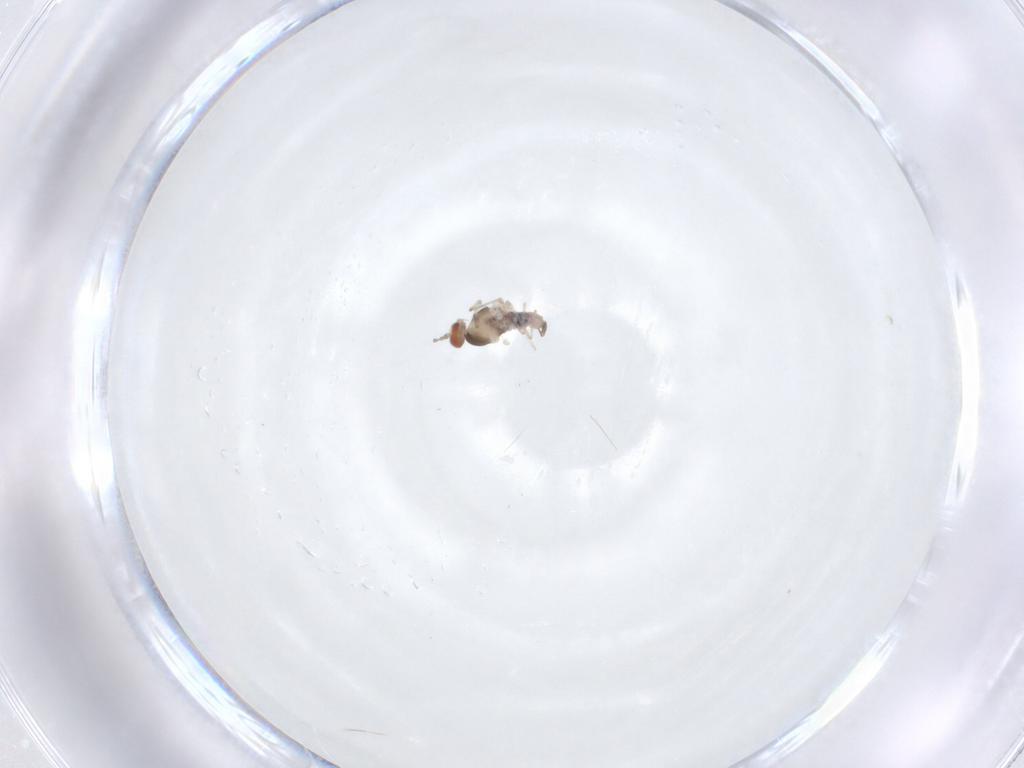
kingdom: Animalia
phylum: Arthropoda
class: Insecta
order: Diptera
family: Cecidomyiidae
